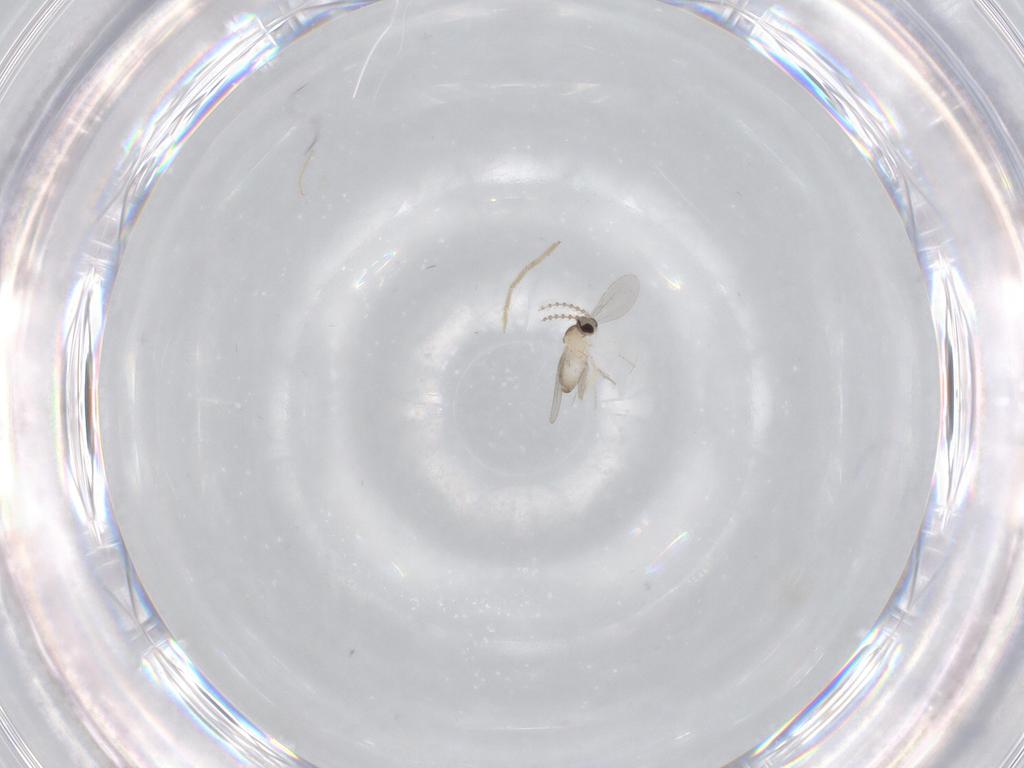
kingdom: Animalia
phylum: Arthropoda
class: Insecta
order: Diptera
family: Cecidomyiidae
